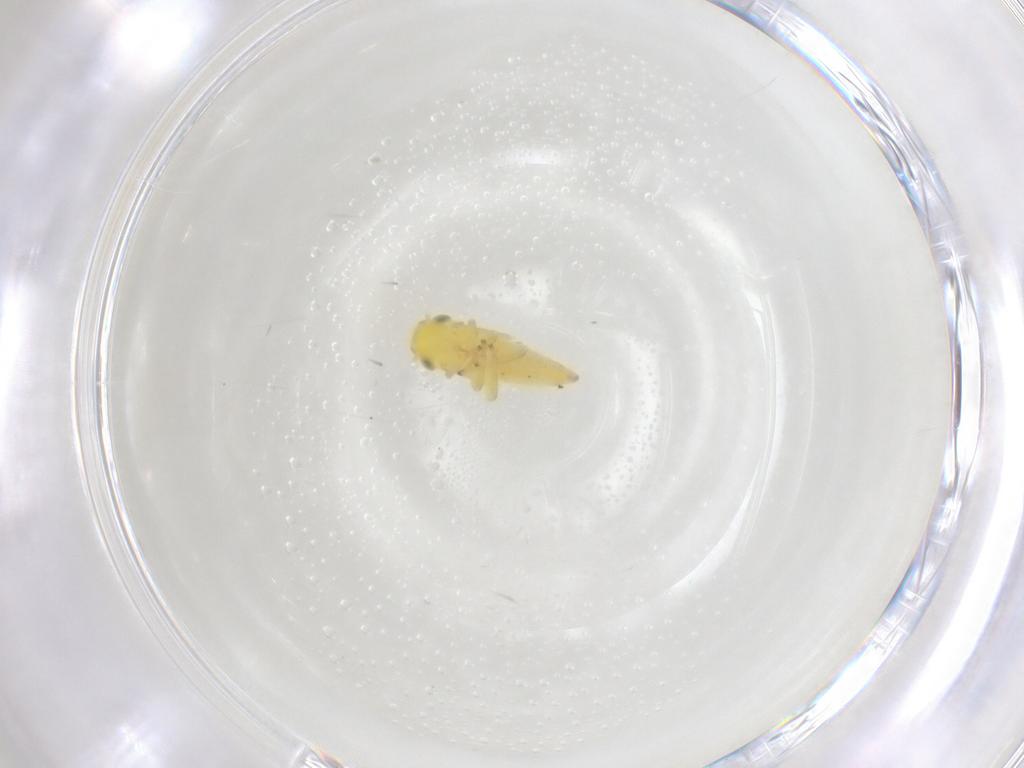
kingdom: Animalia
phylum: Arthropoda
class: Insecta
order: Hemiptera
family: Cicadellidae
